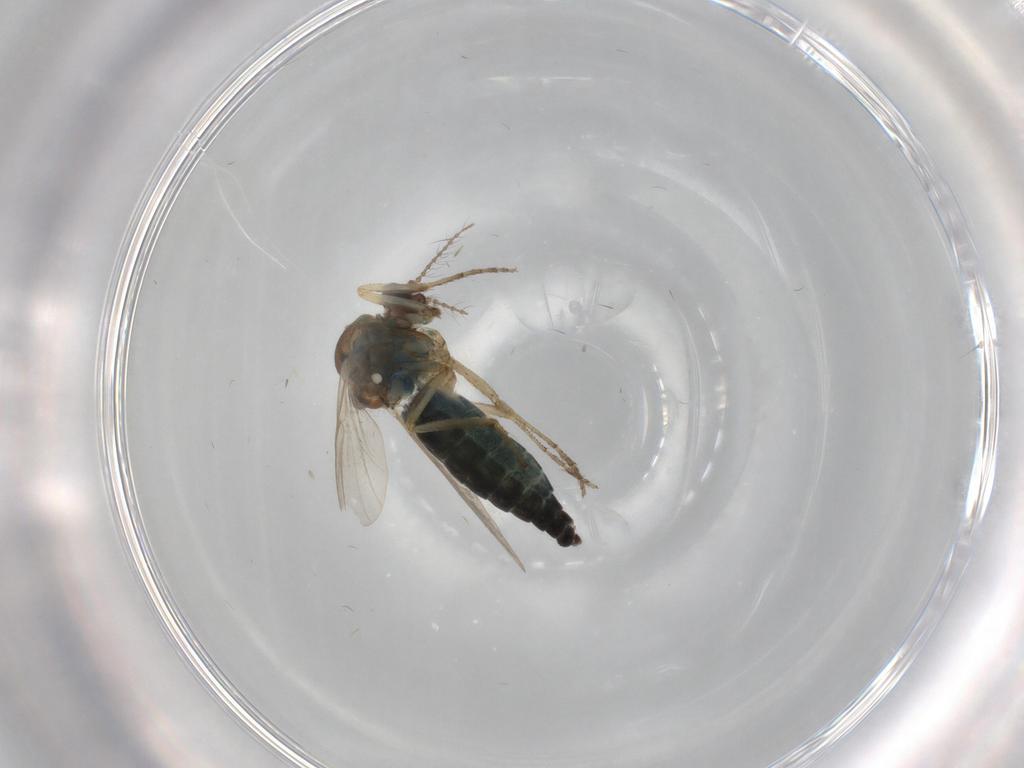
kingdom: Animalia
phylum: Arthropoda
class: Insecta
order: Diptera
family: Ceratopogonidae
